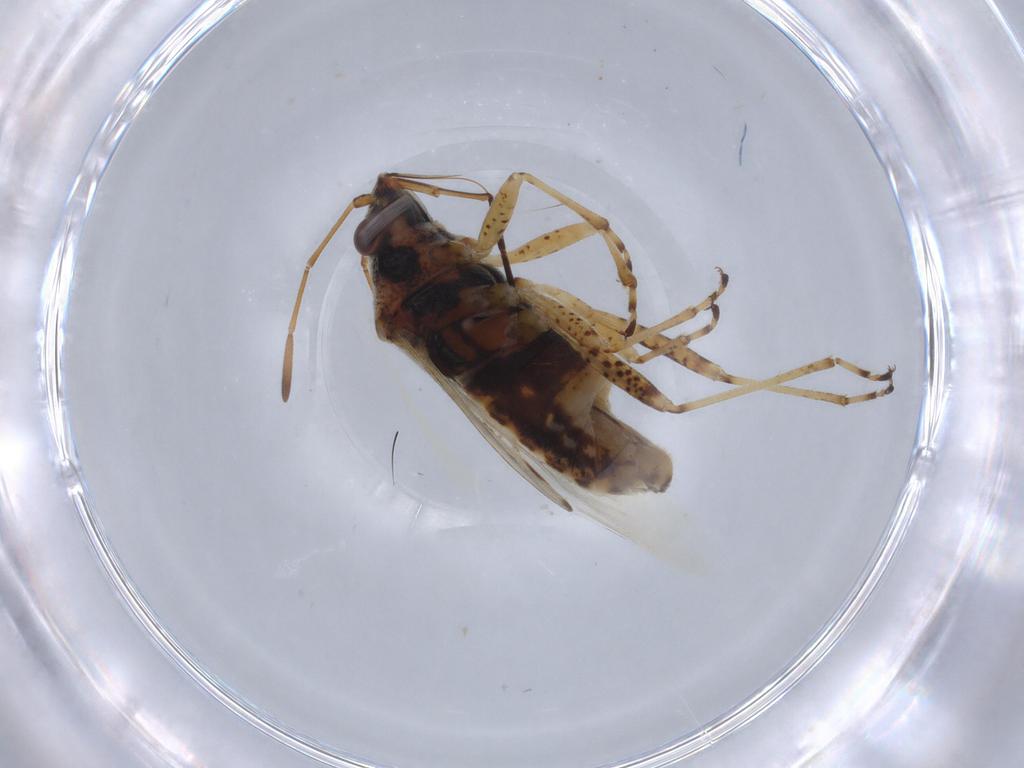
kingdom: Animalia
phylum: Arthropoda
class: Insecta
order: Hemiptera
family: Lygaeidae
